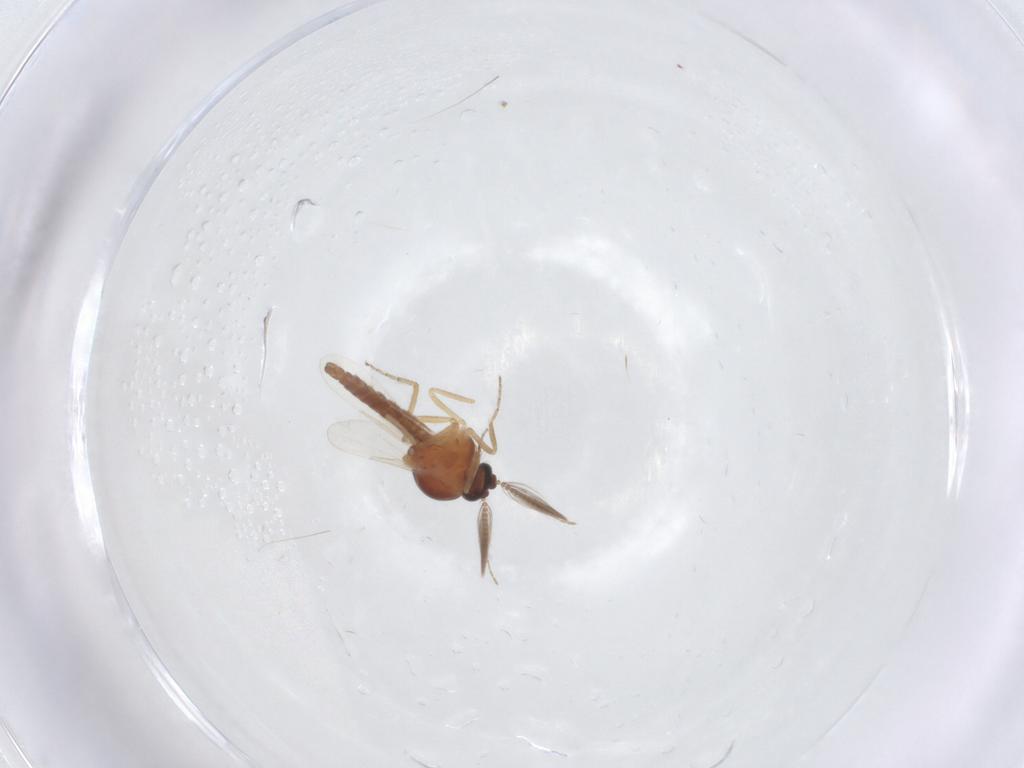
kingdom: Animalia
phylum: Arthropoda
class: Insecta
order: Diptera
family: Ceratopogonidae
